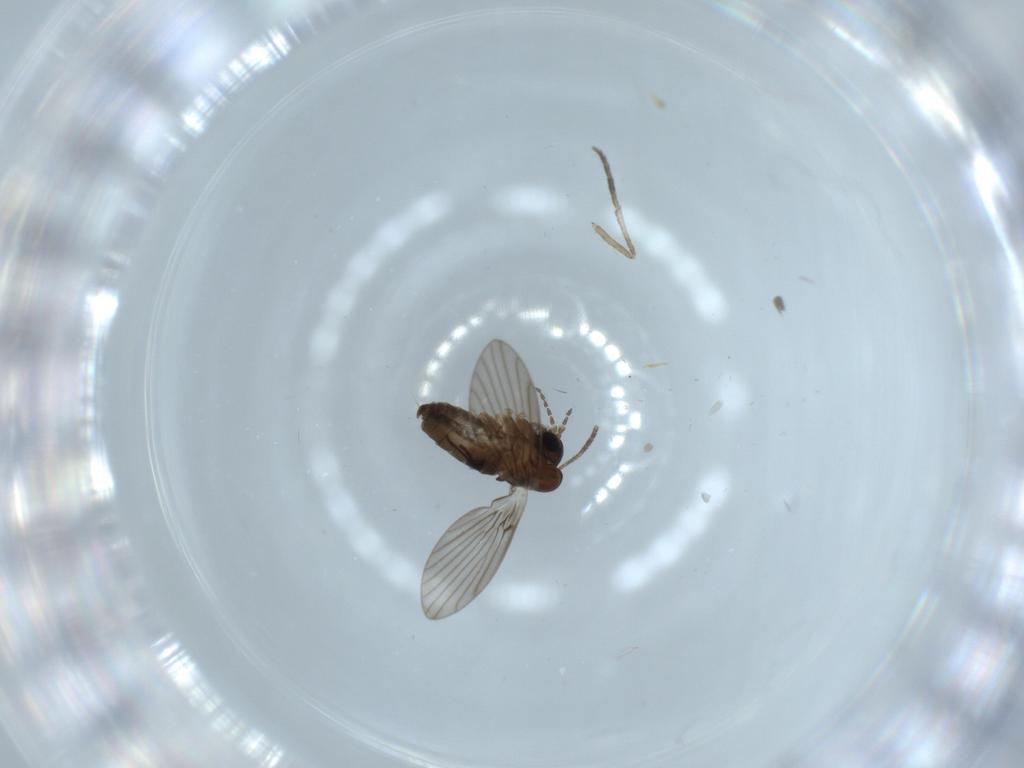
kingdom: Animalia
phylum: Arthropoda
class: Insecta
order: Diptera
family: Psychodidae
